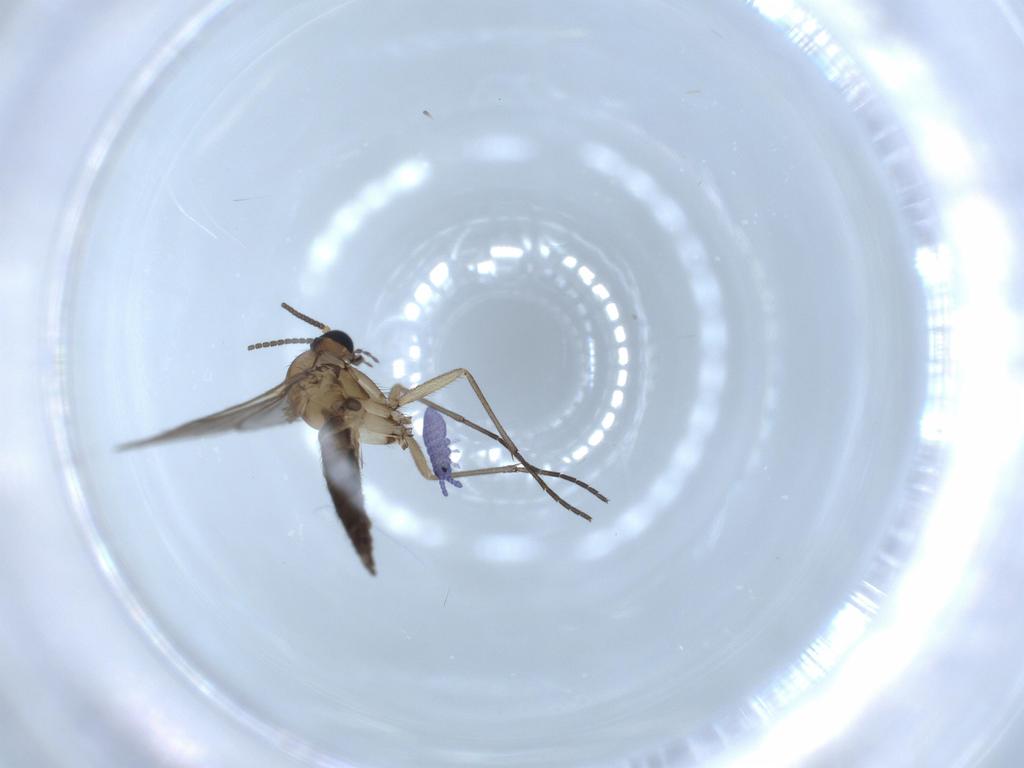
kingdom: Animalia
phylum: Arthropoda
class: Collembola
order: Poduromorpha
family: Neanuridae
